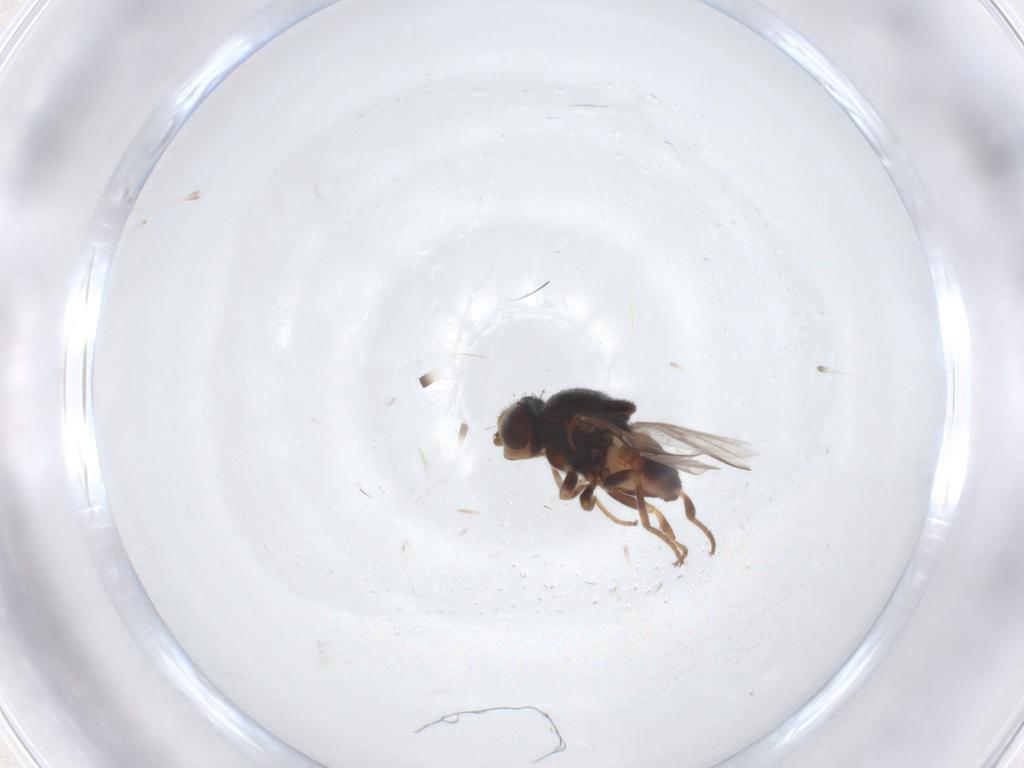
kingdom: Animalia
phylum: Arthropoda
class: Insecta
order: Diptera
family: Chloropidae
